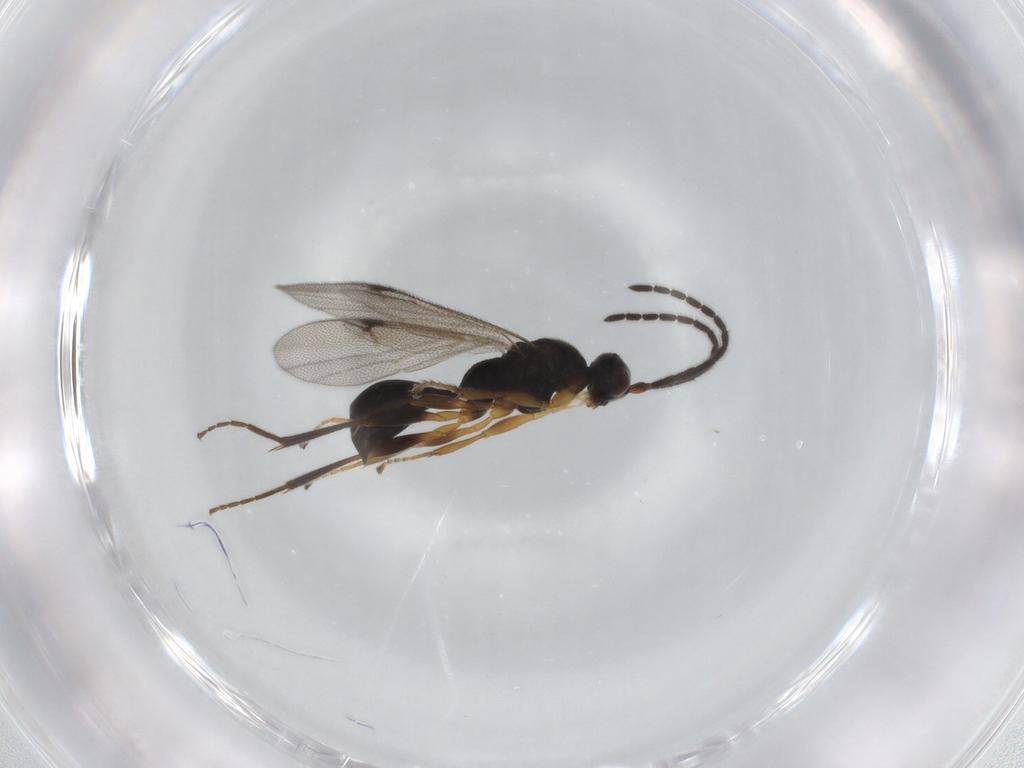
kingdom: Animalia
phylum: Arthropoda
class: Insecta
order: Hymenoptera
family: Proctotrupidae
